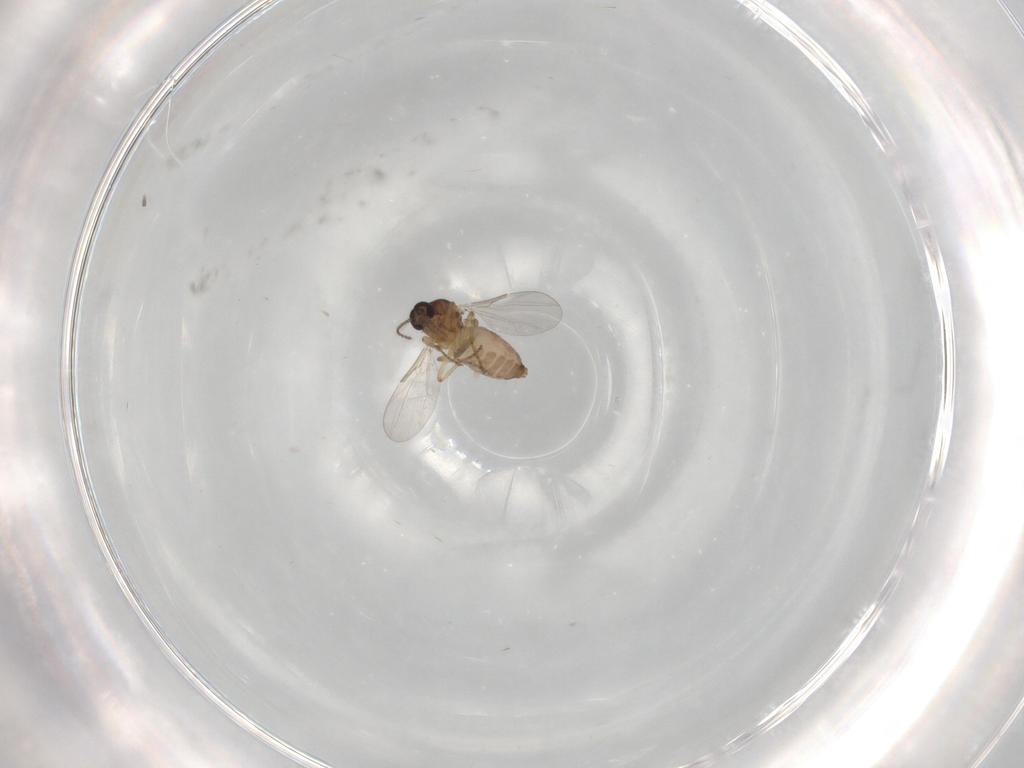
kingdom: Animalia
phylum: Arthropoda
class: Insecta
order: Diptera
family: Ceratopogonidae
